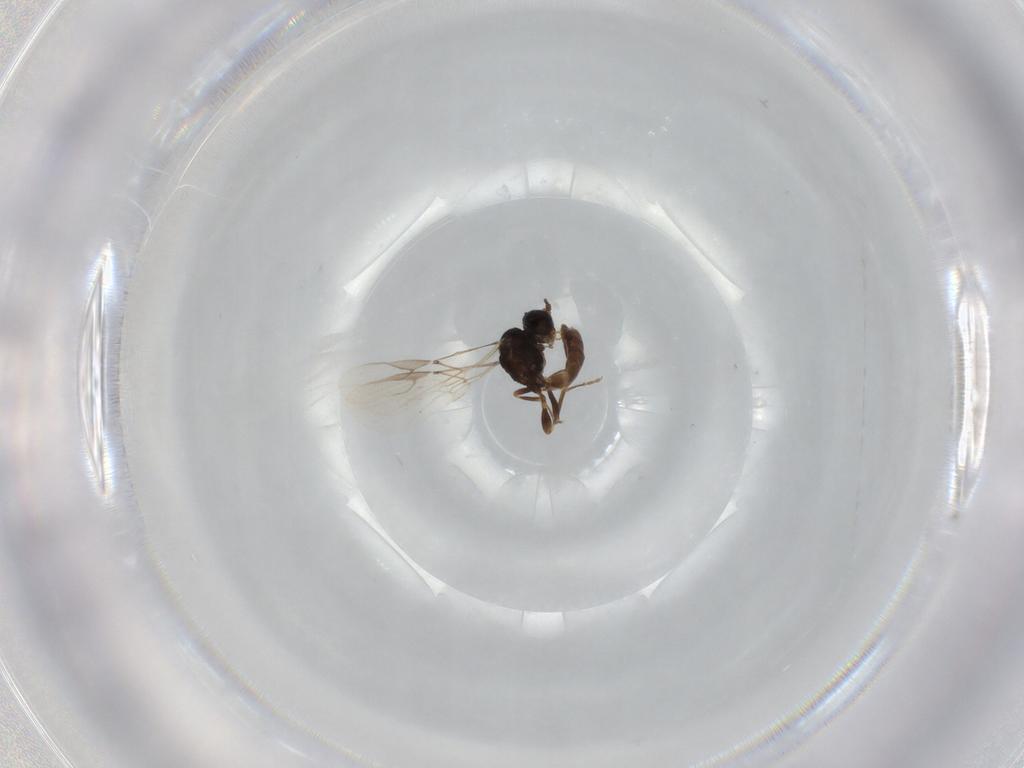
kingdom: Animalia
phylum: Arthropoda
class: Insecta
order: Hymenoptera
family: Braconidae
